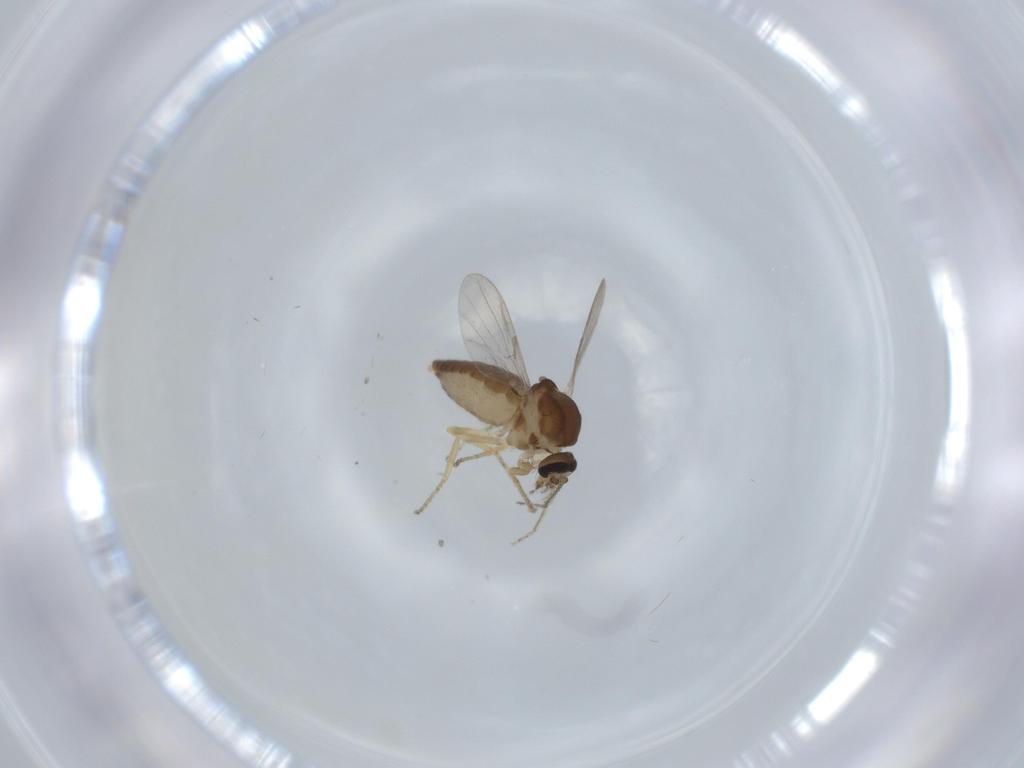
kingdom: Animalia
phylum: Arthropoda
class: Insecta
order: Diptera
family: Ceratopogonidae
